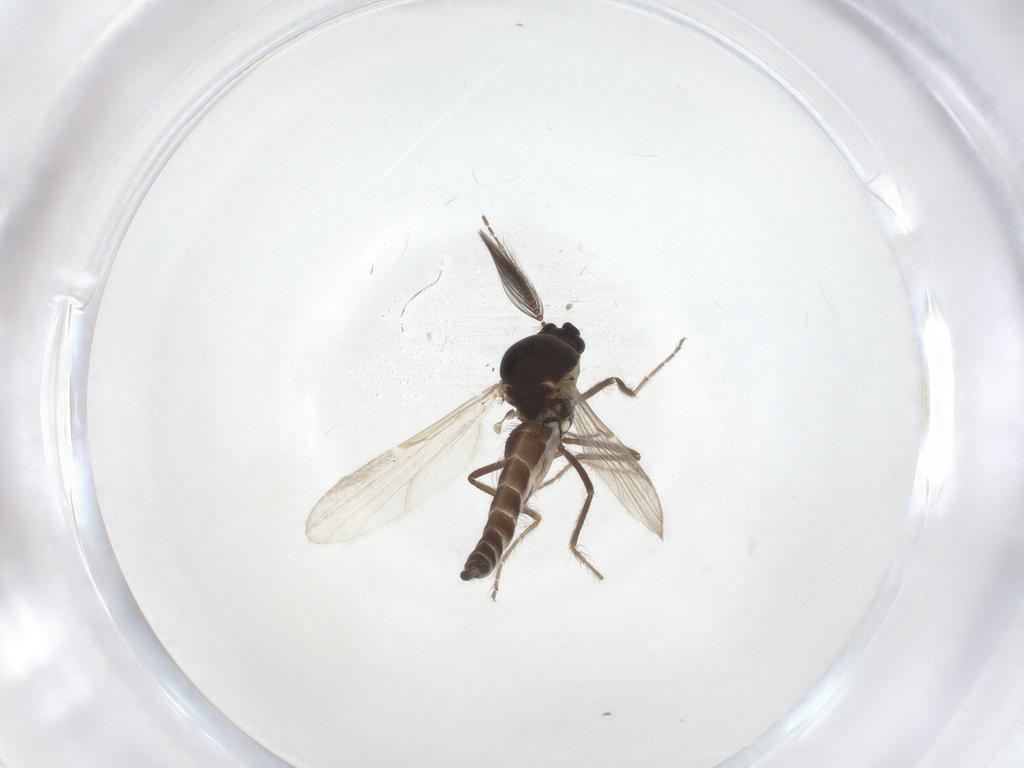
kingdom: Animalia
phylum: Arthropoda
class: Insecta
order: Diptera
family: Ceratopogonidae
